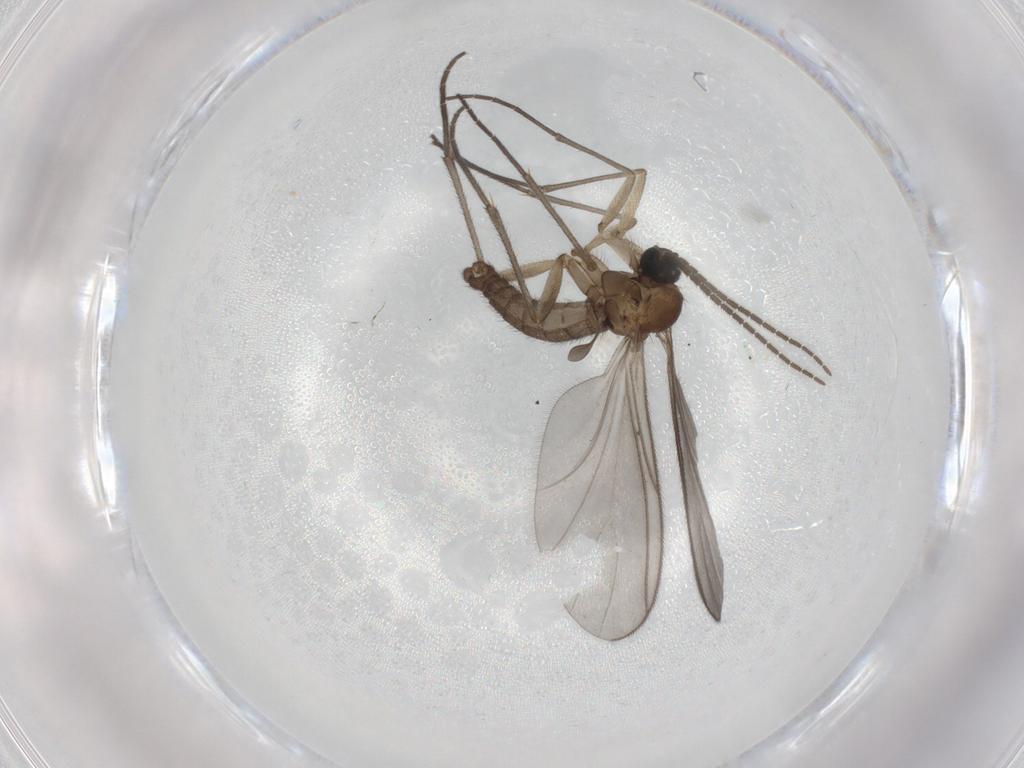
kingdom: Animalia
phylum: Arthropoda
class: Insecta
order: Diptera
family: Sciaridae
